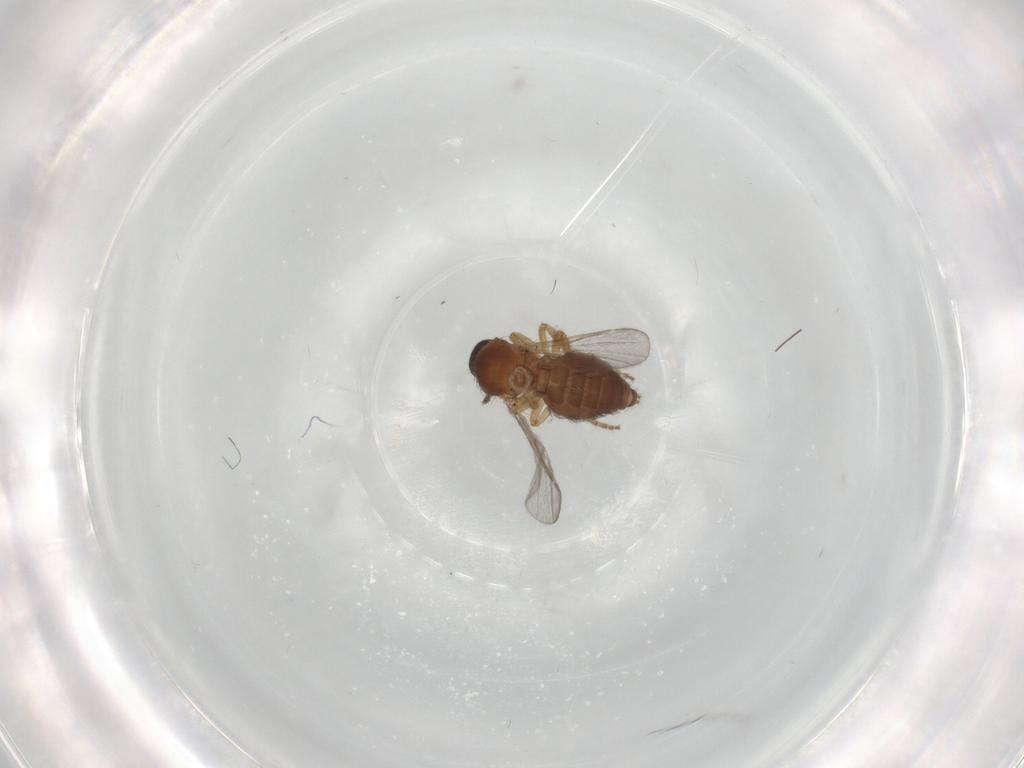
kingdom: Animalia
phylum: Arthropoda
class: Insecta
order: Diptera
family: Ceratopogonidae
